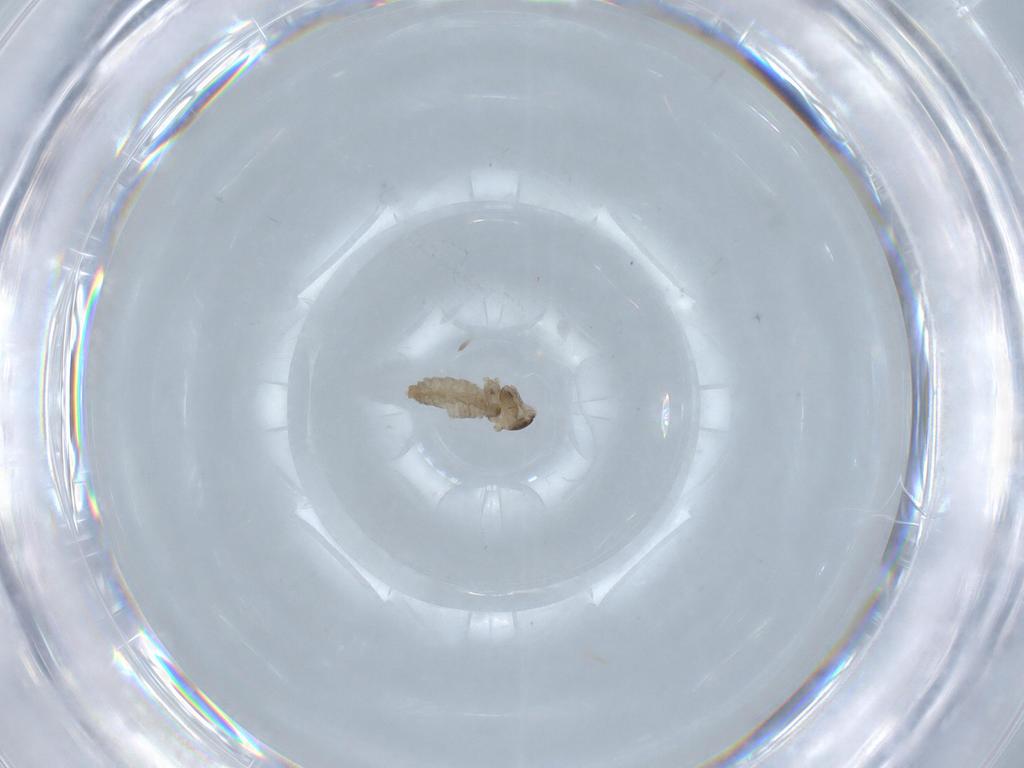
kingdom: Animalia
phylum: Arthropoda
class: Insecta
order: Diptera
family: Cecidomyiidae
